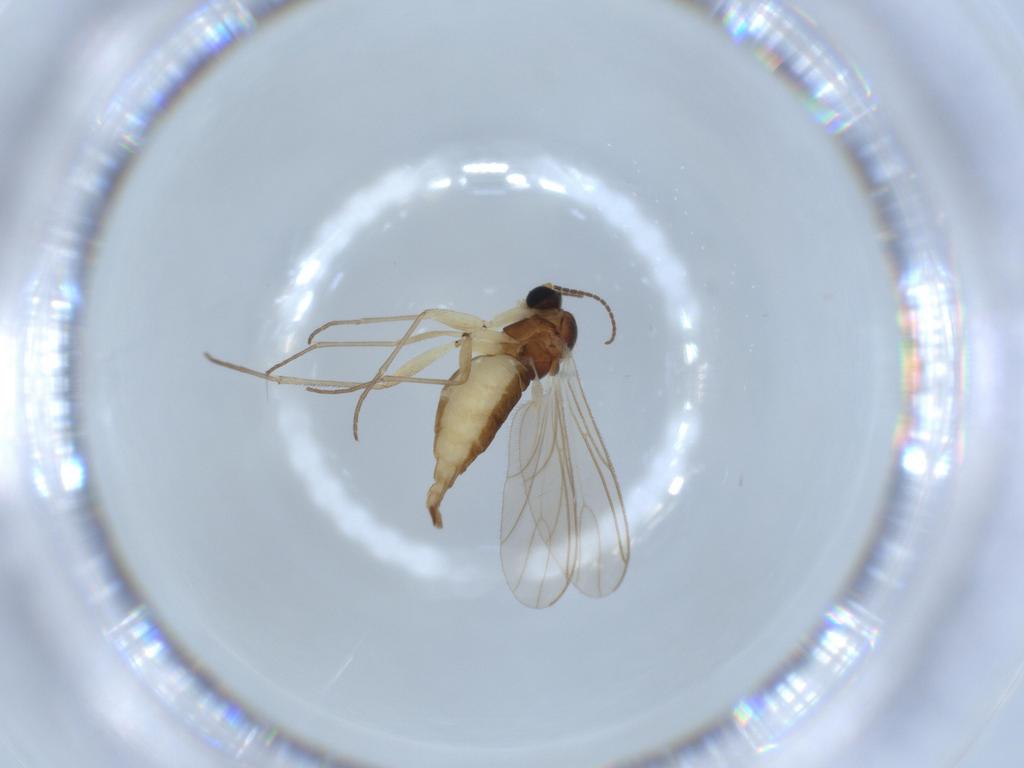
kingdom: Animalia
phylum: Arthropoda
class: Insecta
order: Diptera
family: Sciaridae
